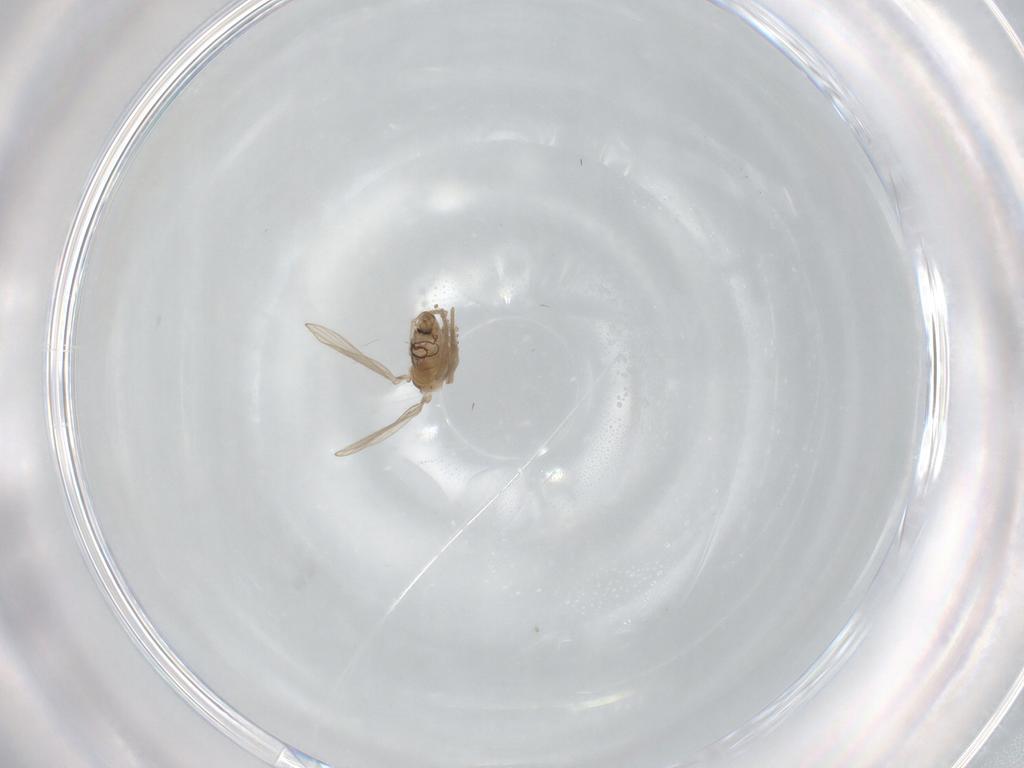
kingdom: Animalia
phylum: Arthropoda
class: Insecta
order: Diptera
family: Psychodidae
